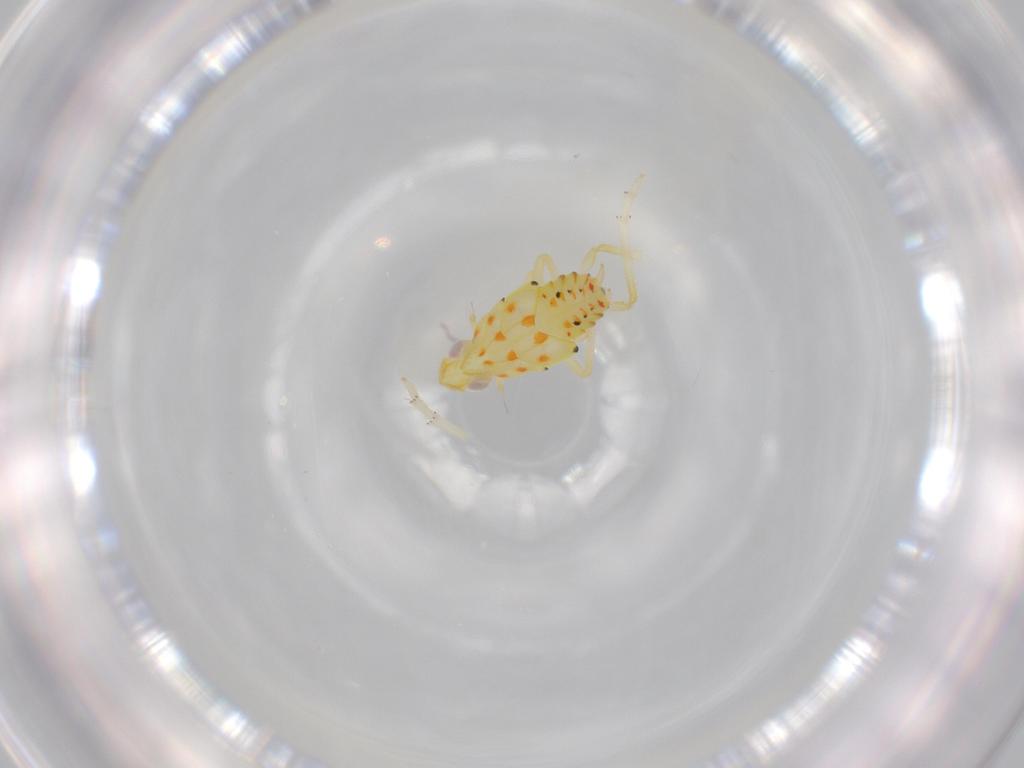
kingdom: Animalia
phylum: Arthropoda
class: Insecta
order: Hemiptera
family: Tropiduchidae
